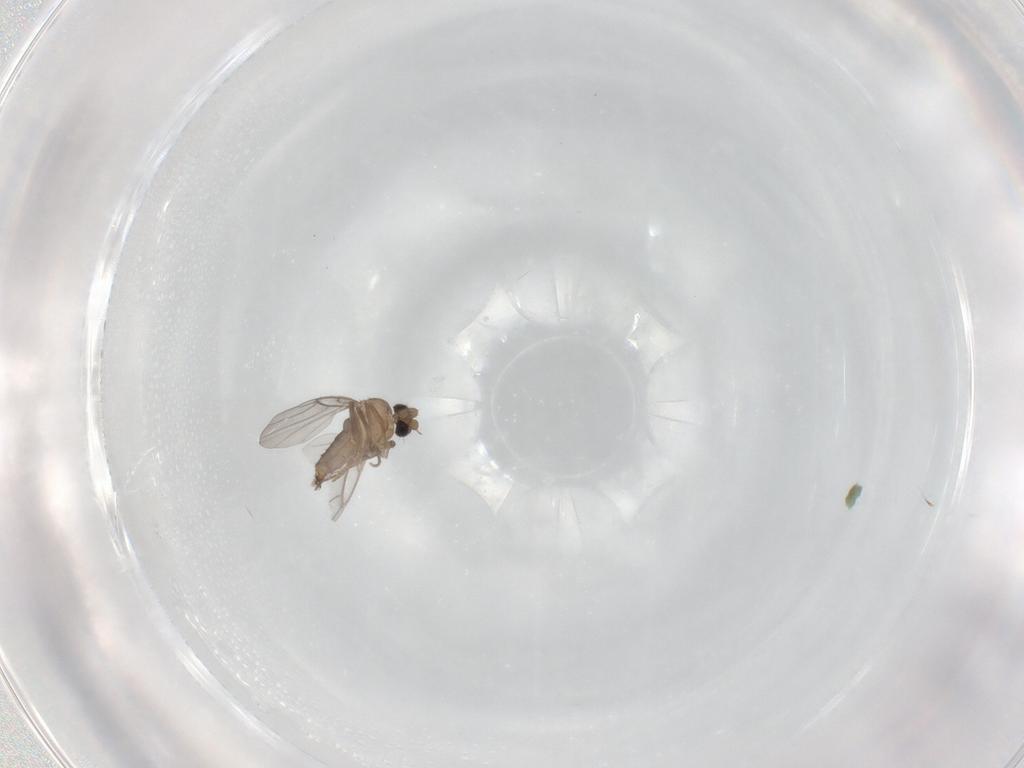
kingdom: Animalia
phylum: Arthropoda
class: Insecta
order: Diptera
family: Dolichopodidae
